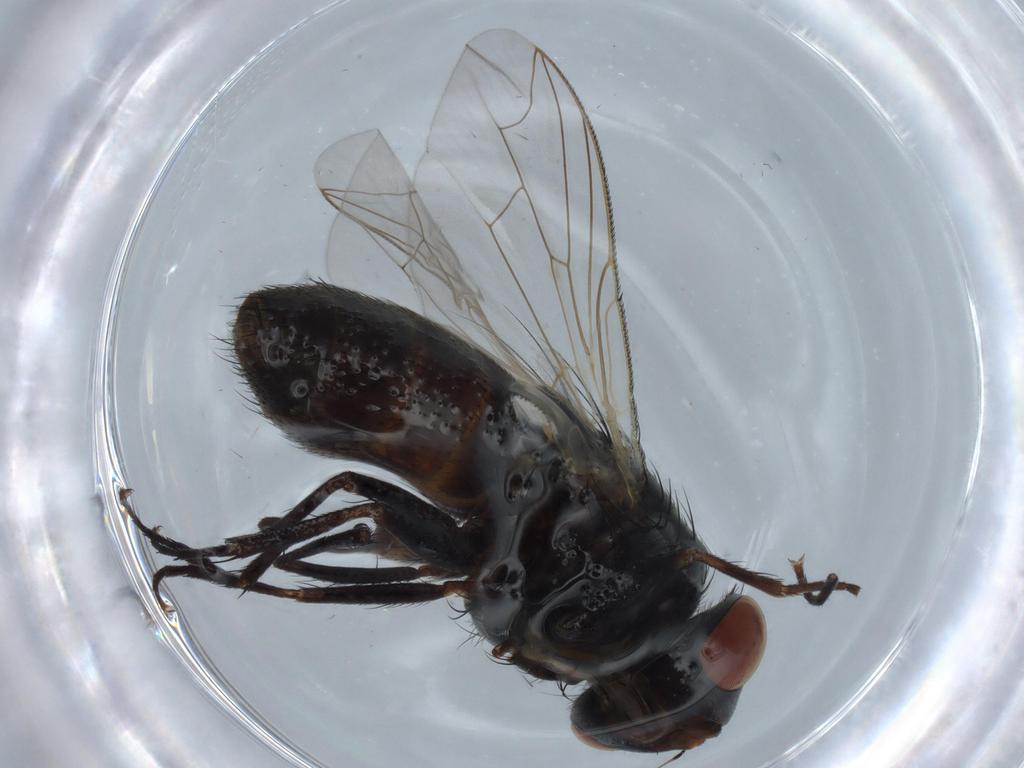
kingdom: Animalia
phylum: Arthropoda
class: Insecta
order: Diptera
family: Sarcophagidae
